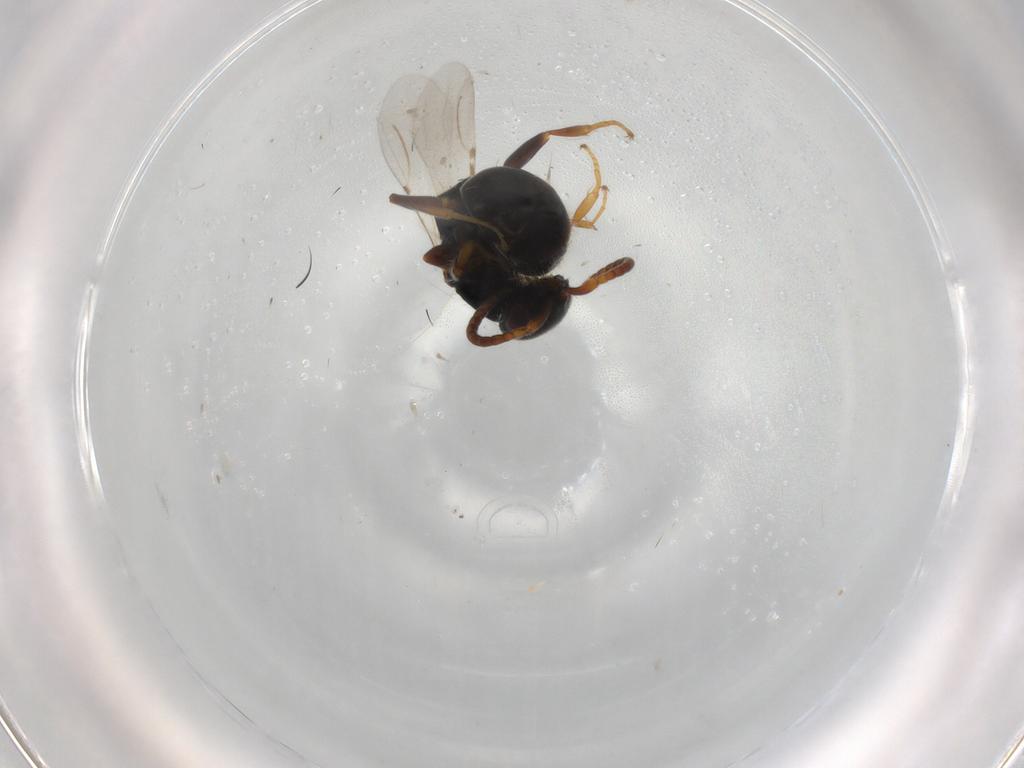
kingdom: Animalia
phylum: Arthropoda
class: Insecta
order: Hymenoptera
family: Bethylidae
